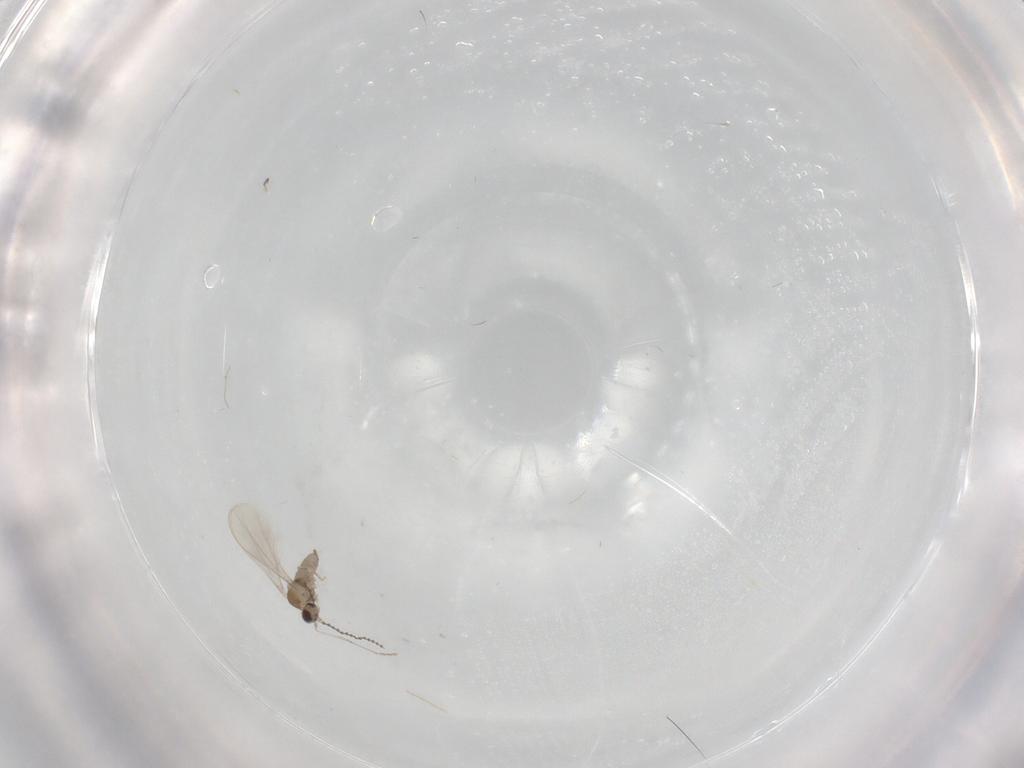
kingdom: Animalia
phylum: Arthropoda
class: Insecta
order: Diptera
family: Cecidomyiidae
